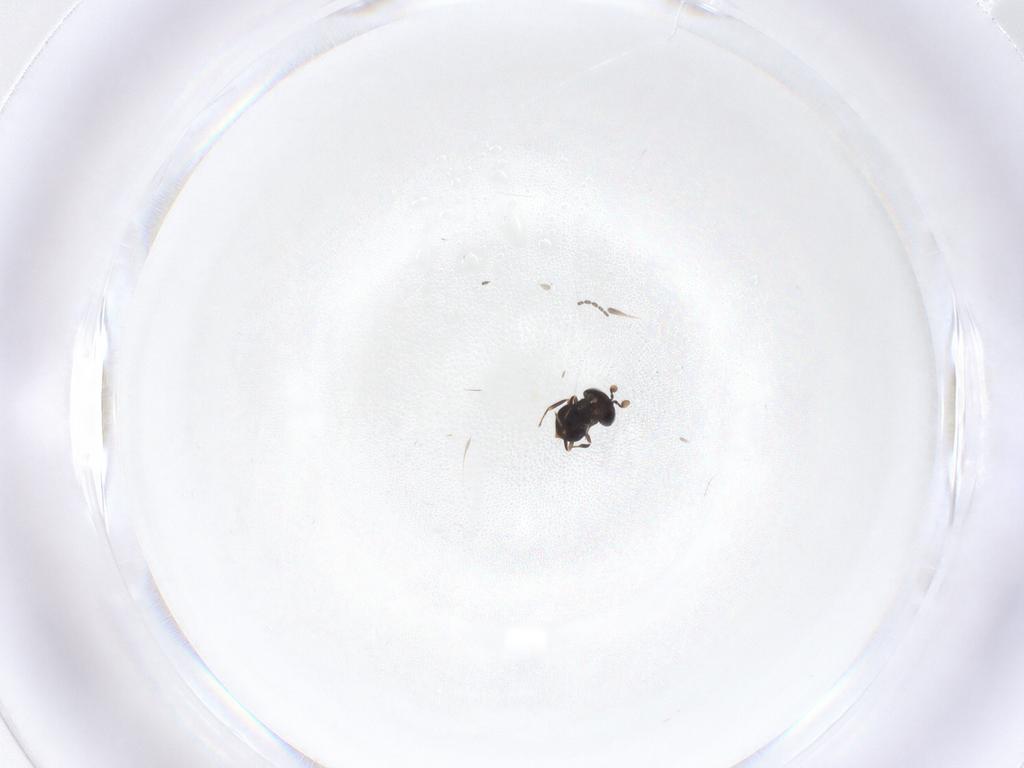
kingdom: Animalia
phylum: Arthropoda
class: Insecta
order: Hymenoptera
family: Scelionidae
